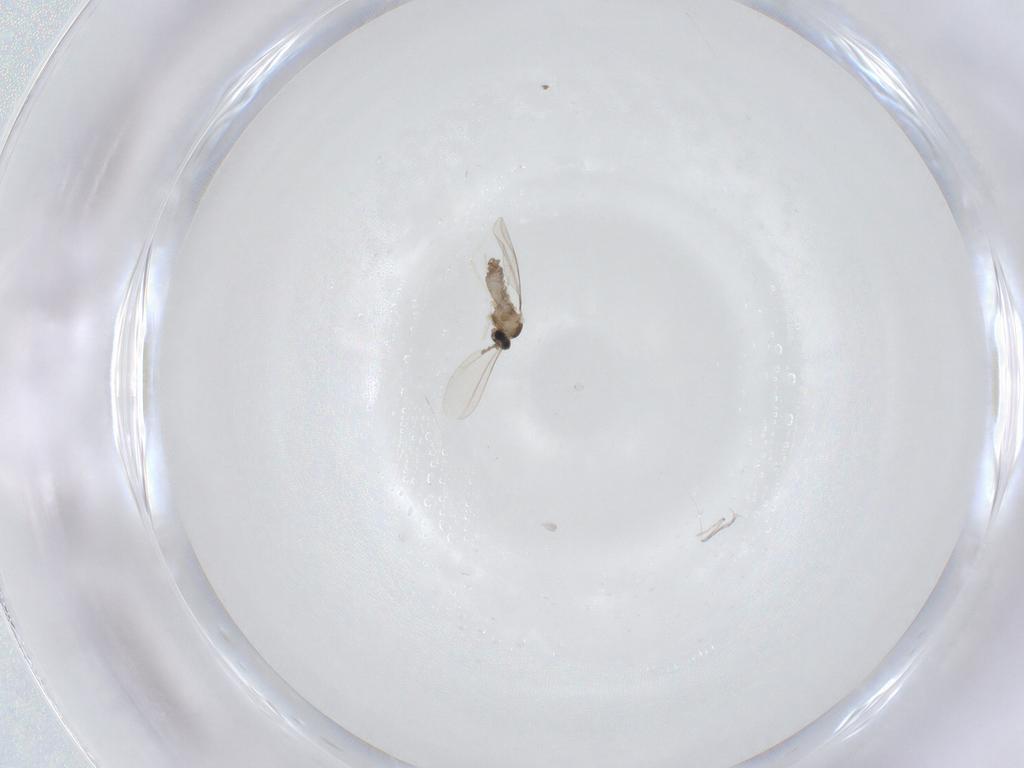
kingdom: Animalia
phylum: Arthropoda
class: Insecta
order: Diptera
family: Cecidomyiidae
